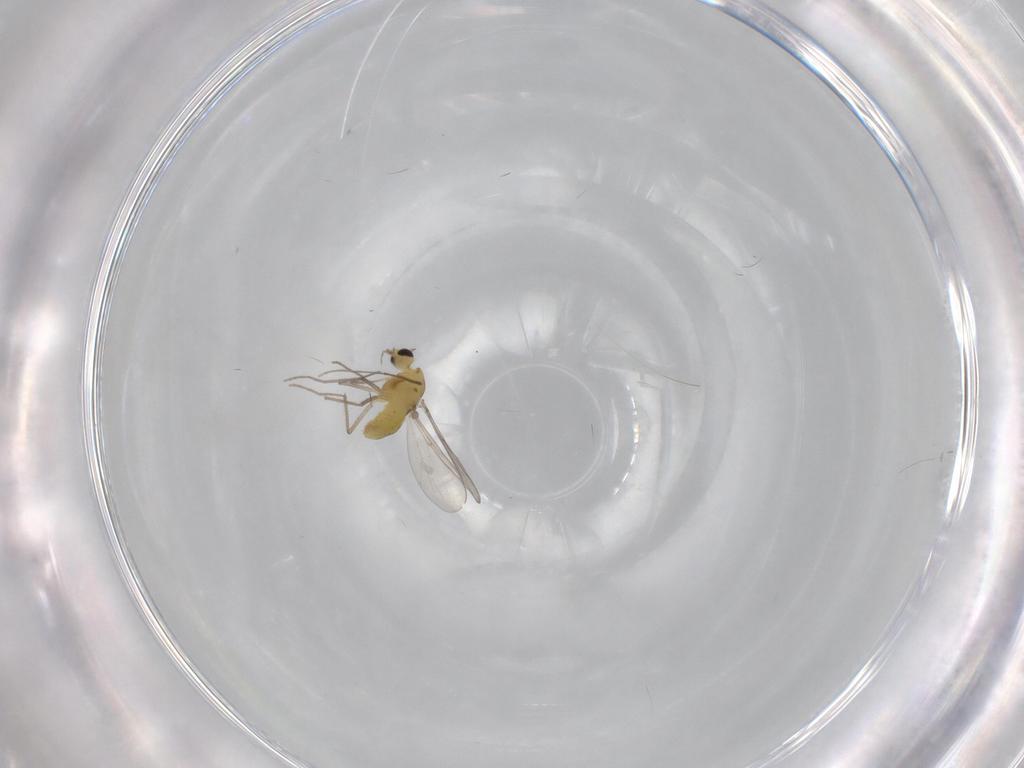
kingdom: Animalia
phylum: Arthropoda
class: Insecta
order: Diptera
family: Chironomidae
